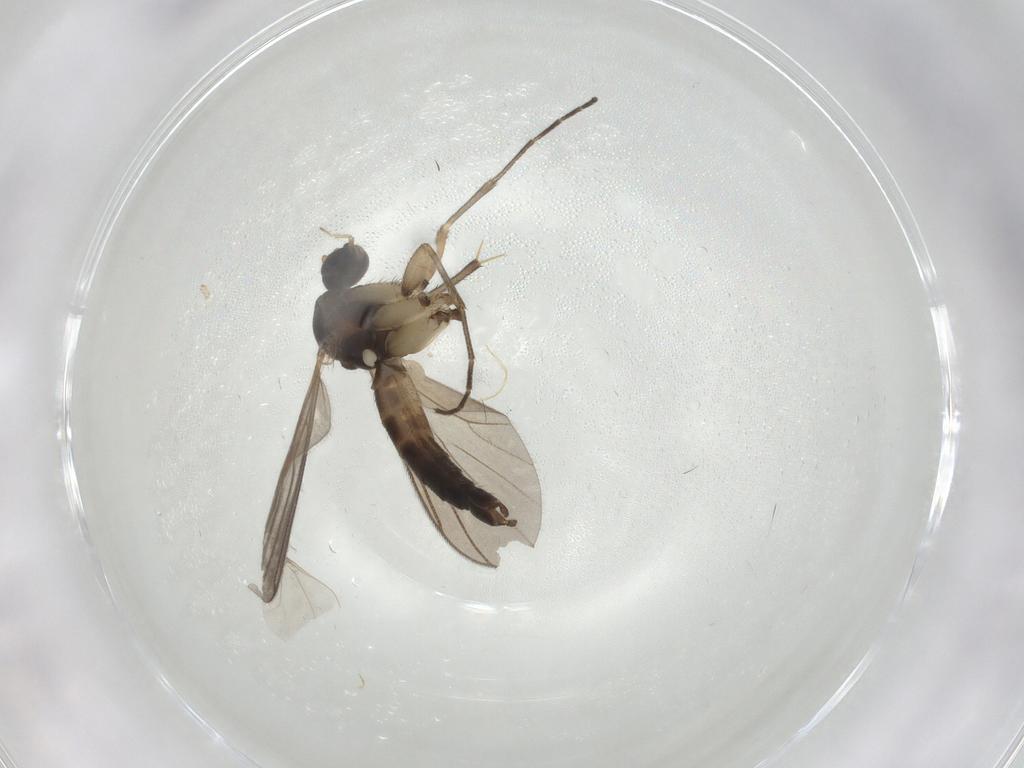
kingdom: Animalia
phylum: Arthropoda
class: Insecta
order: Diptera
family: Cecidomyiidae
